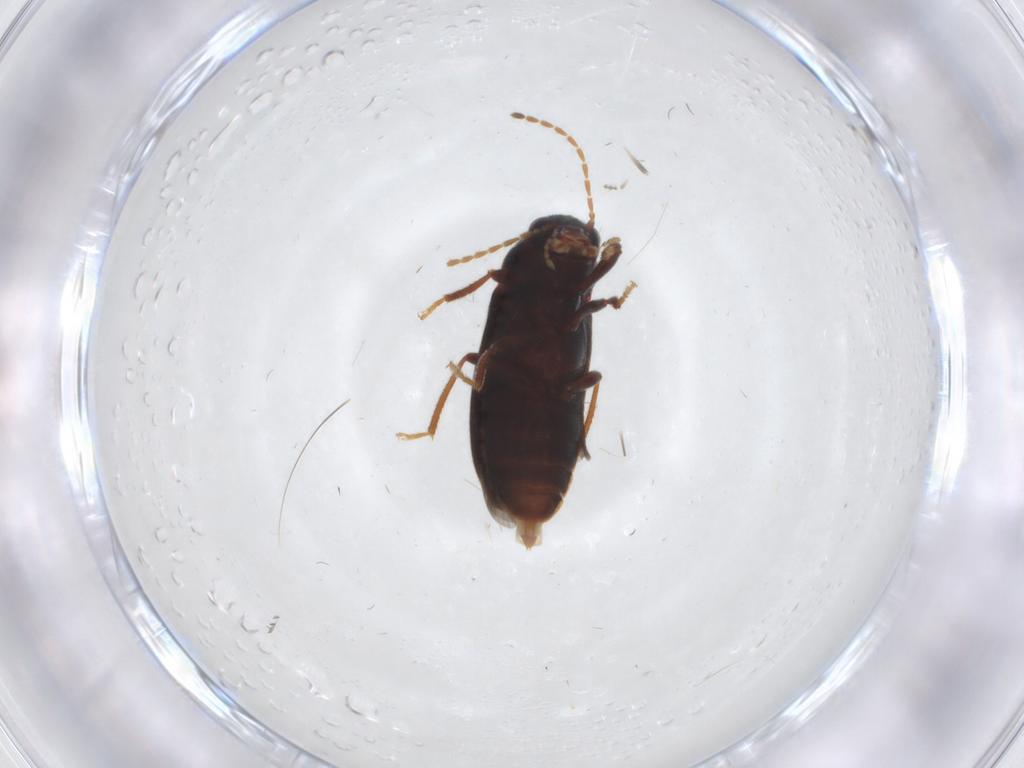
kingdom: Animalia
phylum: Arthropoda
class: Insecta
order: Coleoptera
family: Ptilodactylidae
